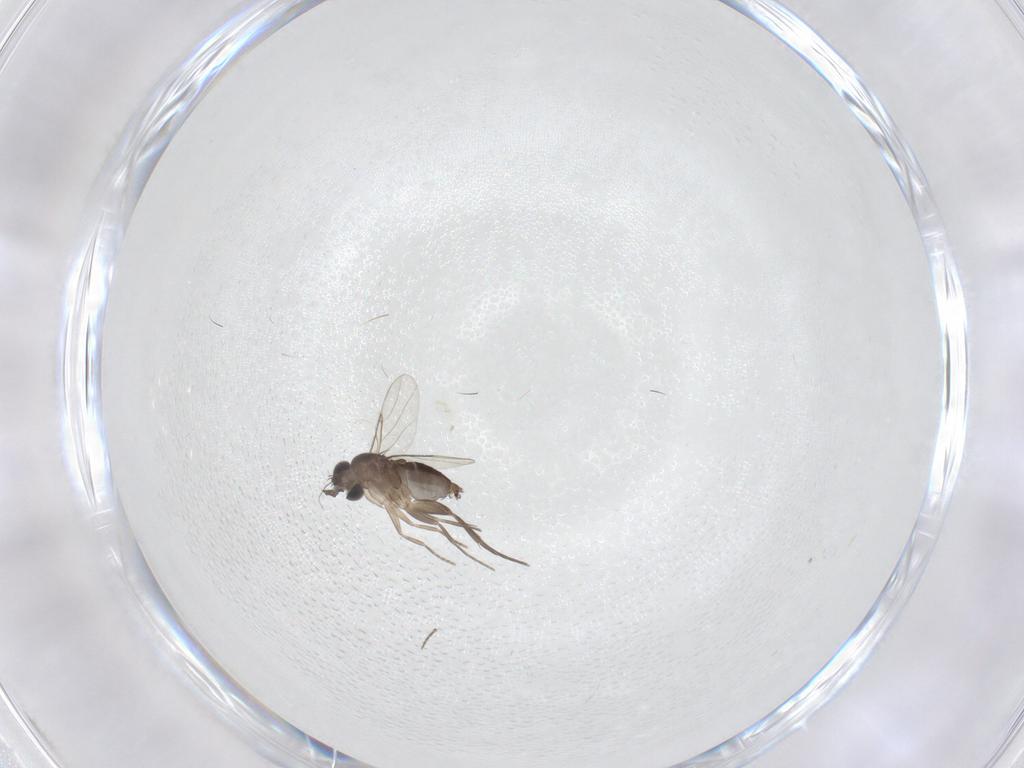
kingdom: Animalia
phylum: Arthropoda
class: Insecta
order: Diptera
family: Phoridae
